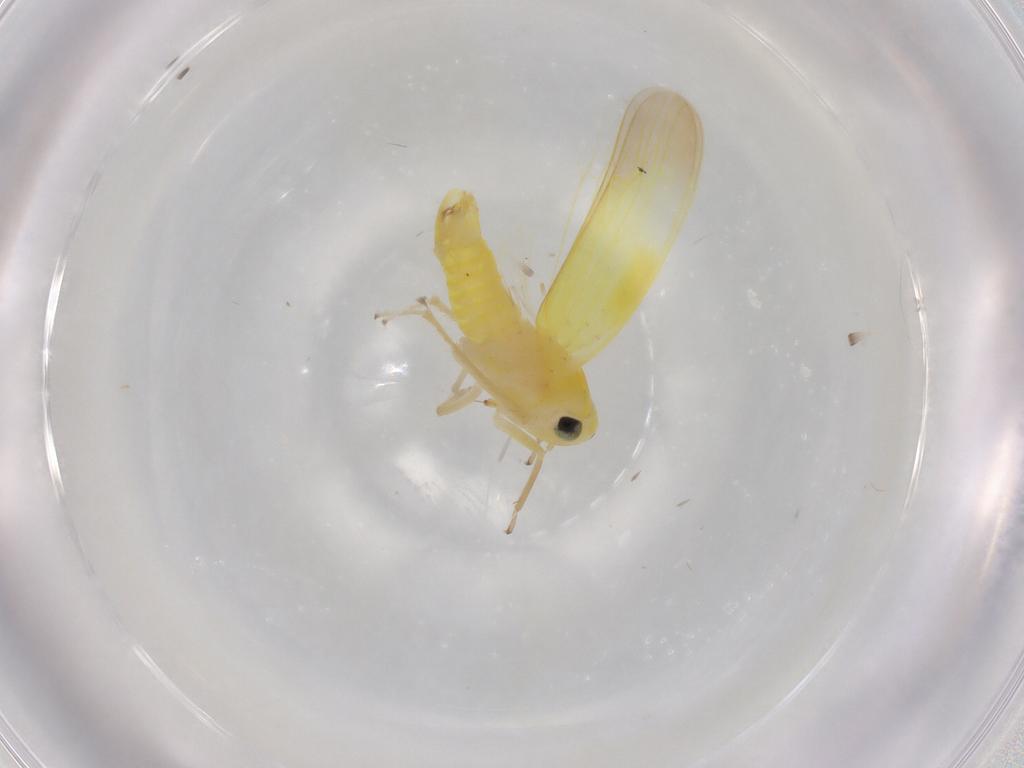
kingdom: Animalia
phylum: Arthropoda
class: Insecta
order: Hemiptera
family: Cicadellidae
